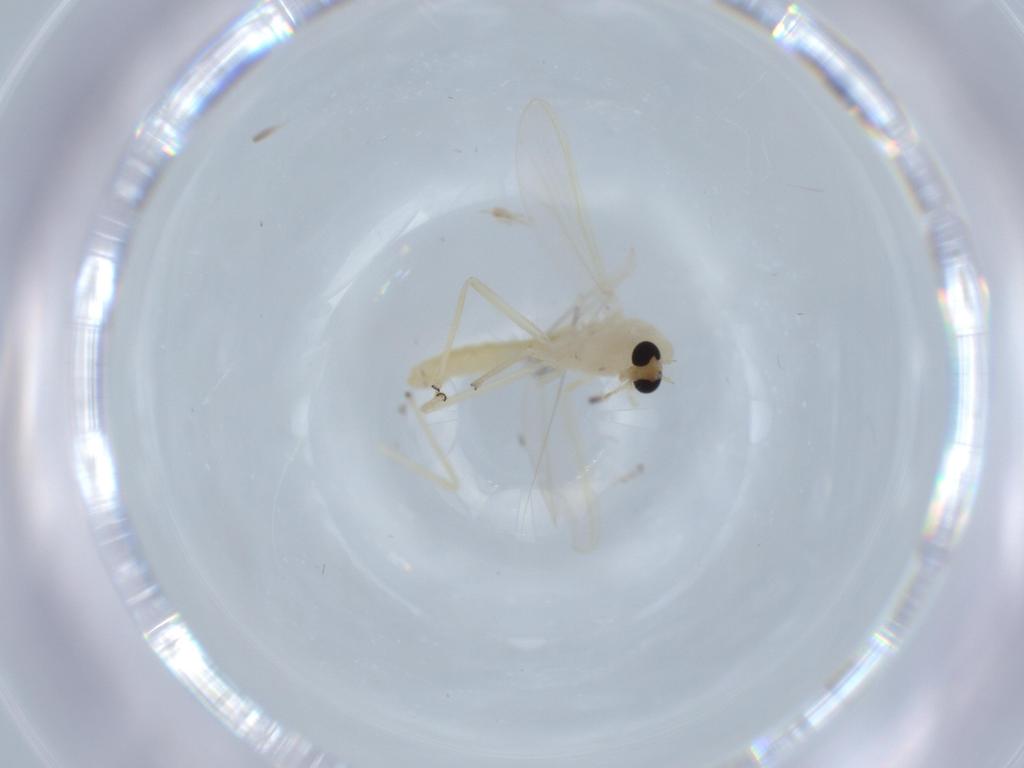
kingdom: Animalia
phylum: Arthropoda
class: Insecta
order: Diptera
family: Chironomidae
